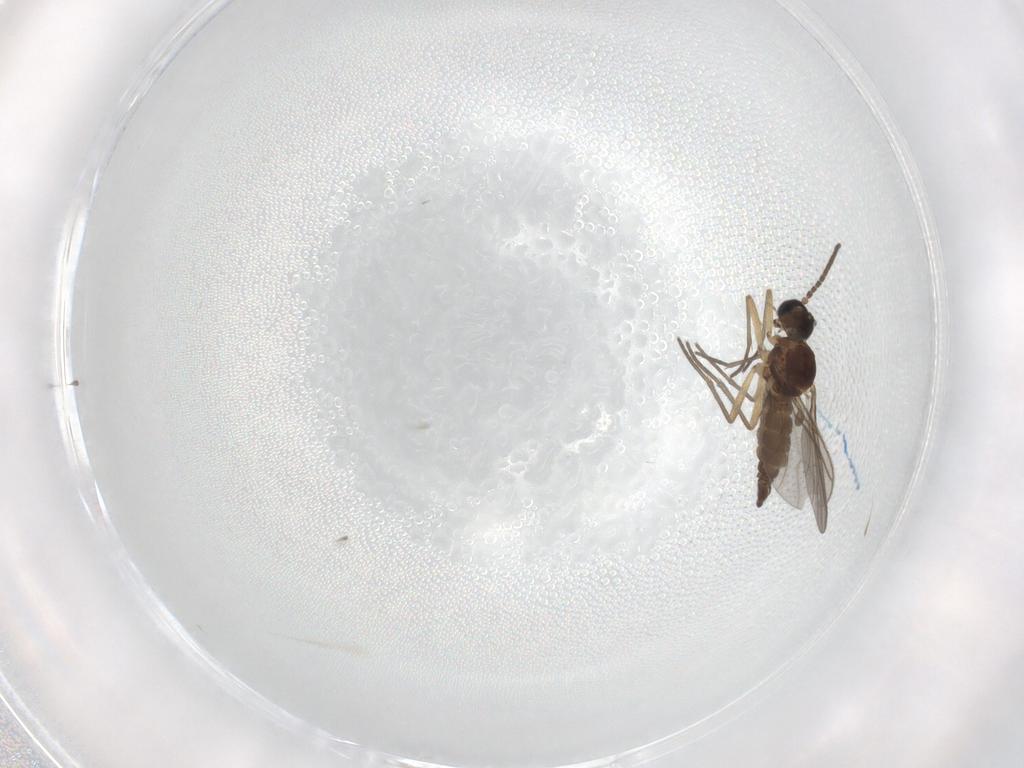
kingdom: Animalia
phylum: Arthropoda
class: Insecta
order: Diptera
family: Sciaridae
